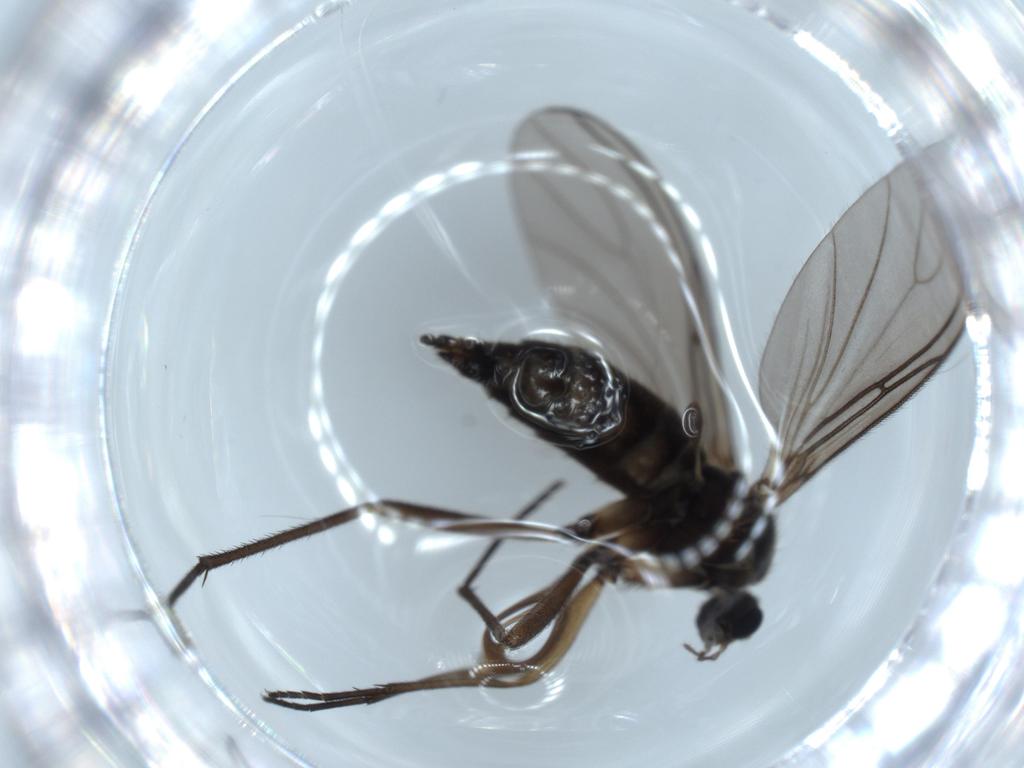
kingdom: Animalia
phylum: Arthropoda
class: Insecta
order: Diptera
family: Sciaridae
